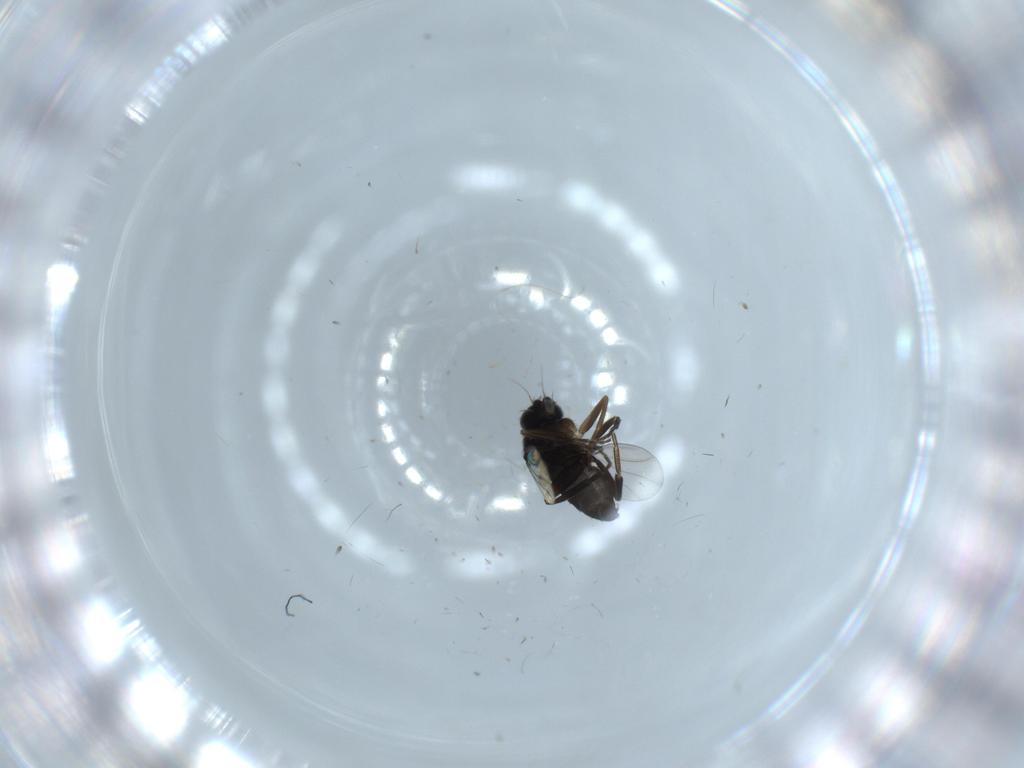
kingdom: Animalia
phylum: Arthropoda
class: Insecta
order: Diptera
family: Phoridae
